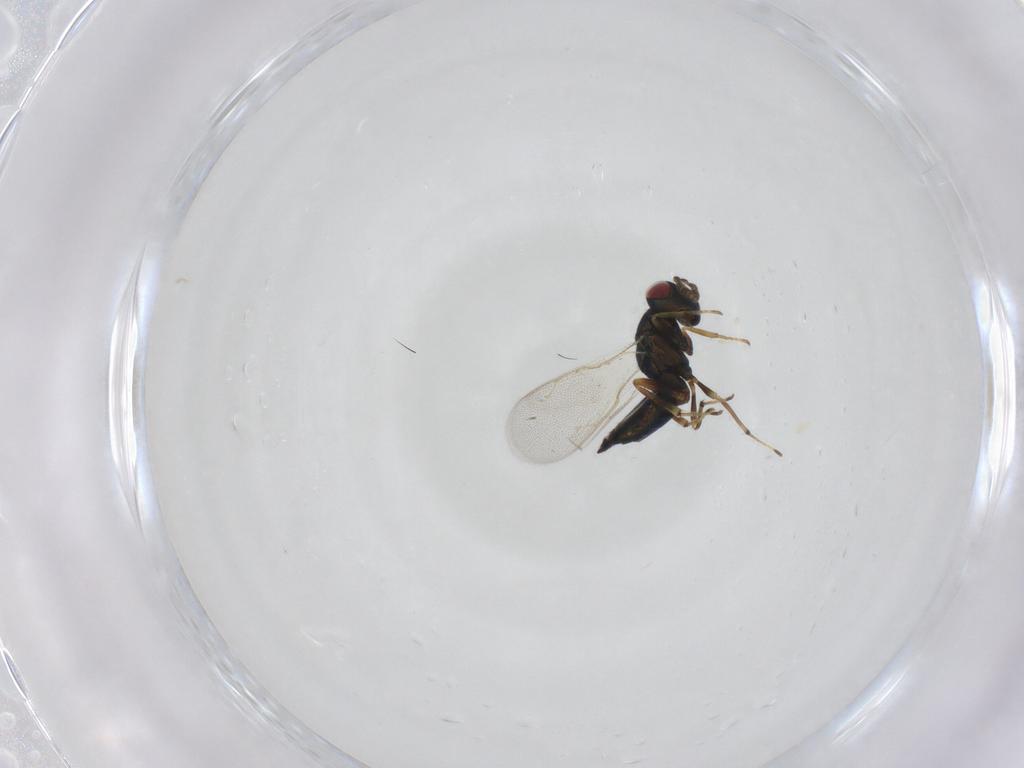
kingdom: Animalia
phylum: Arthropoda
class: Insecta
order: Hymenoptera
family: Pteromalidae
